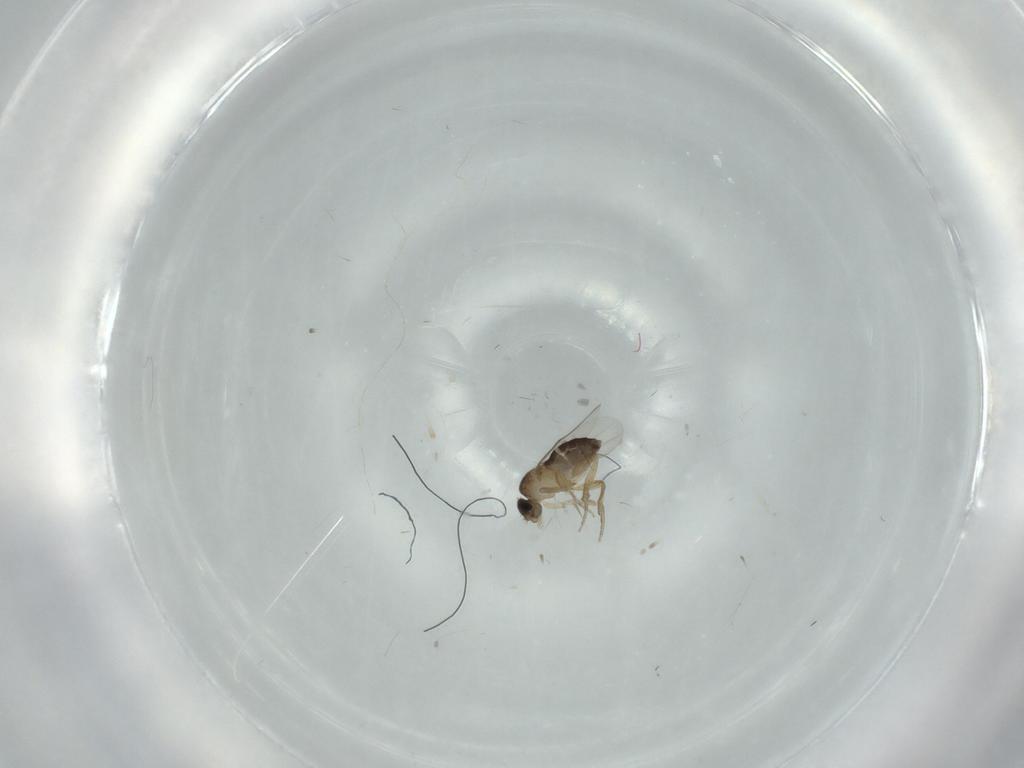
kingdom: Animalia
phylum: Arthropoda
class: Insecta
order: Diptera
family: Phoridae
